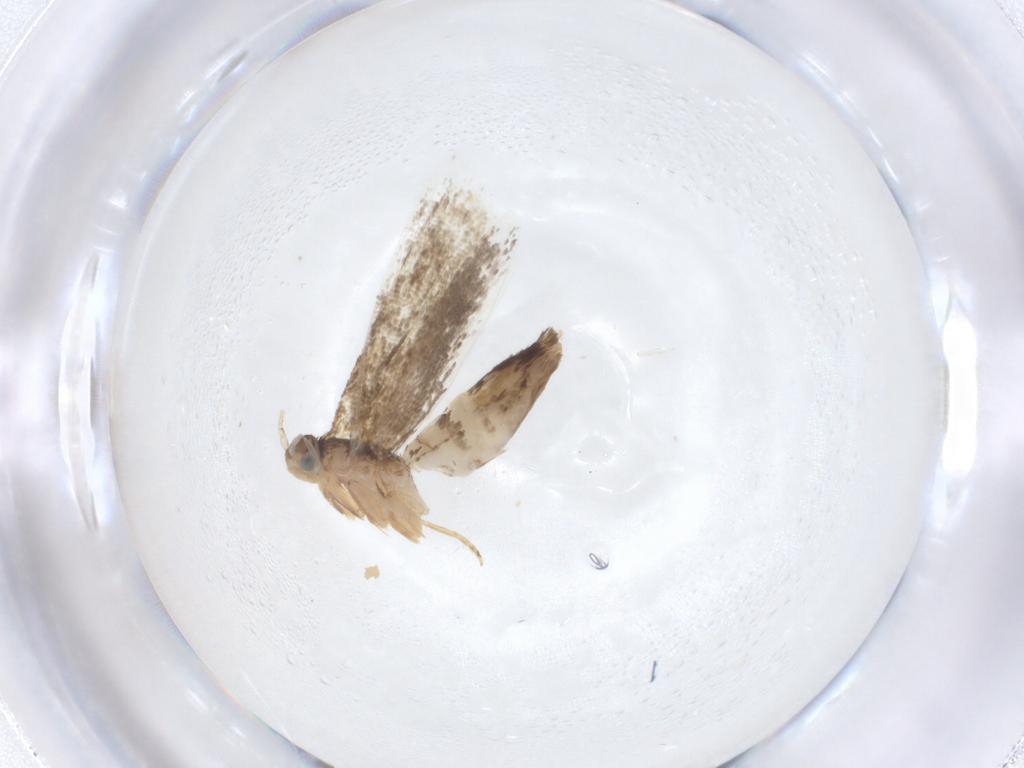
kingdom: Animalia
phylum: Arthropoda
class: Insecta
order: Lepidoptera
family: Dryadaulidae
